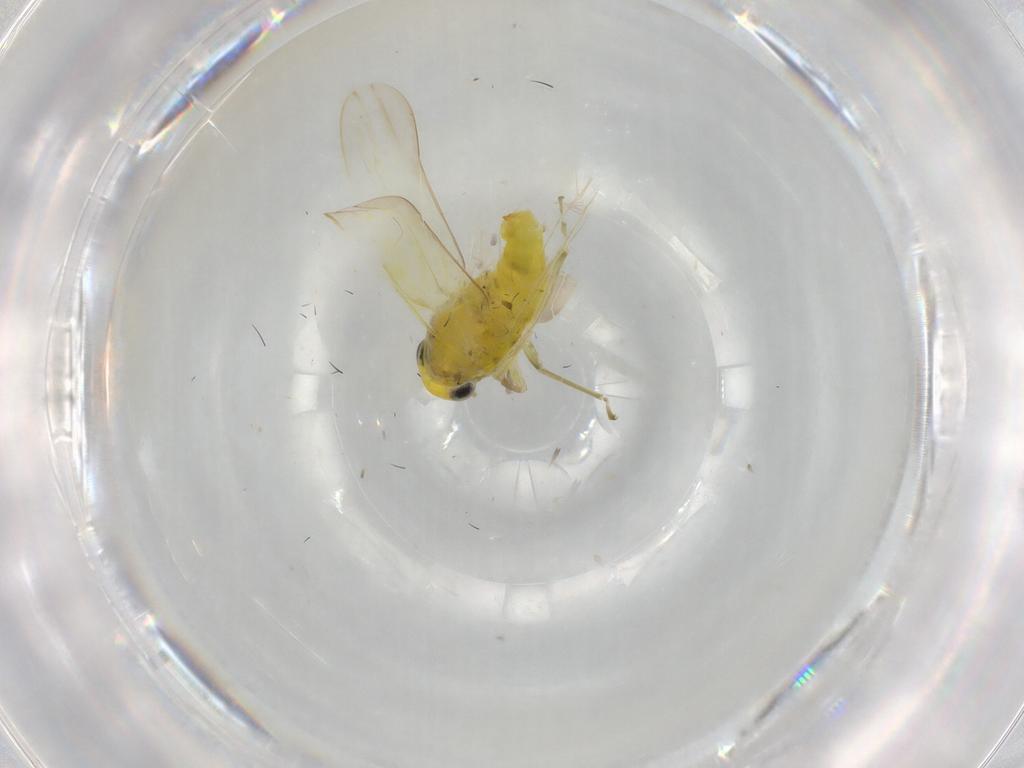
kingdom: Animalia
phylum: Arthropoda
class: Insecta
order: Hemiptera
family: Cicadellidae
